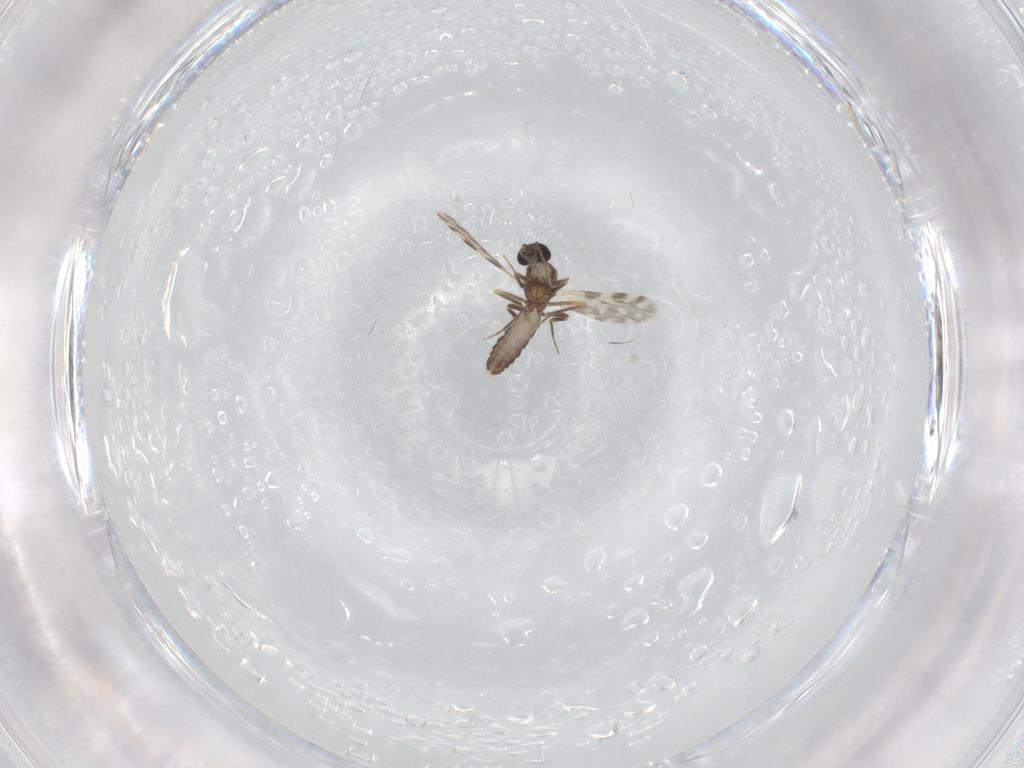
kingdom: Animalia
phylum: Arthropoda
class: Insecta
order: Diptera
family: Ceratopogonidae
